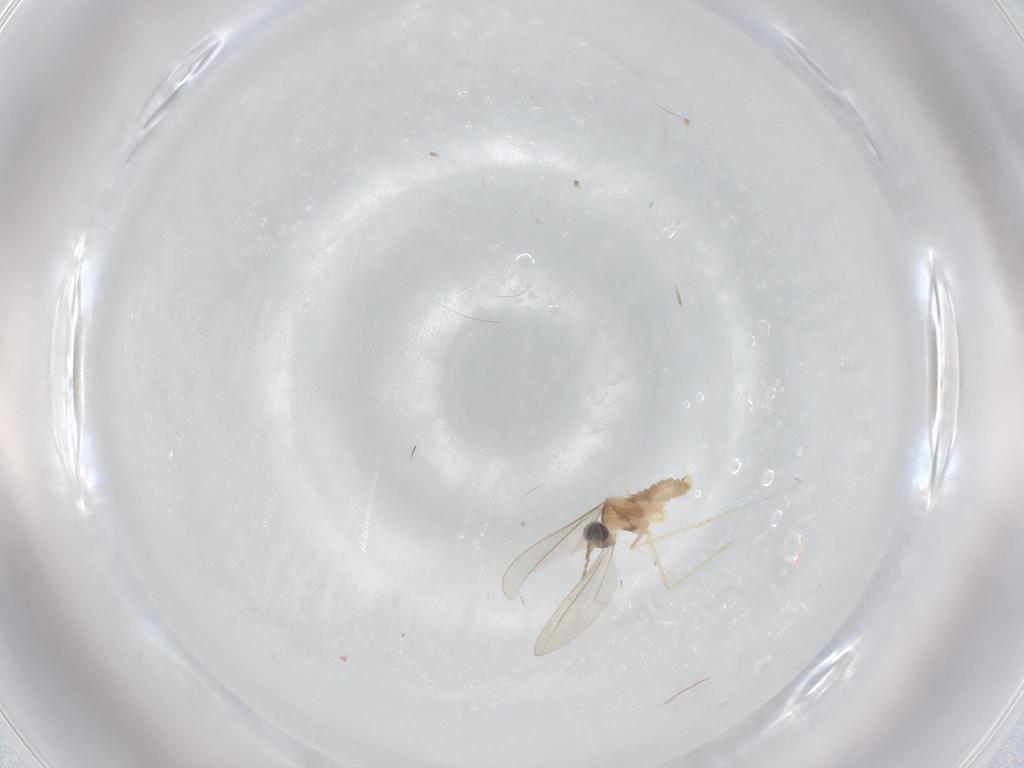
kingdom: Animalia
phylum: Arthropoda
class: Insecta
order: Diptera
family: Cecidomyiidae
